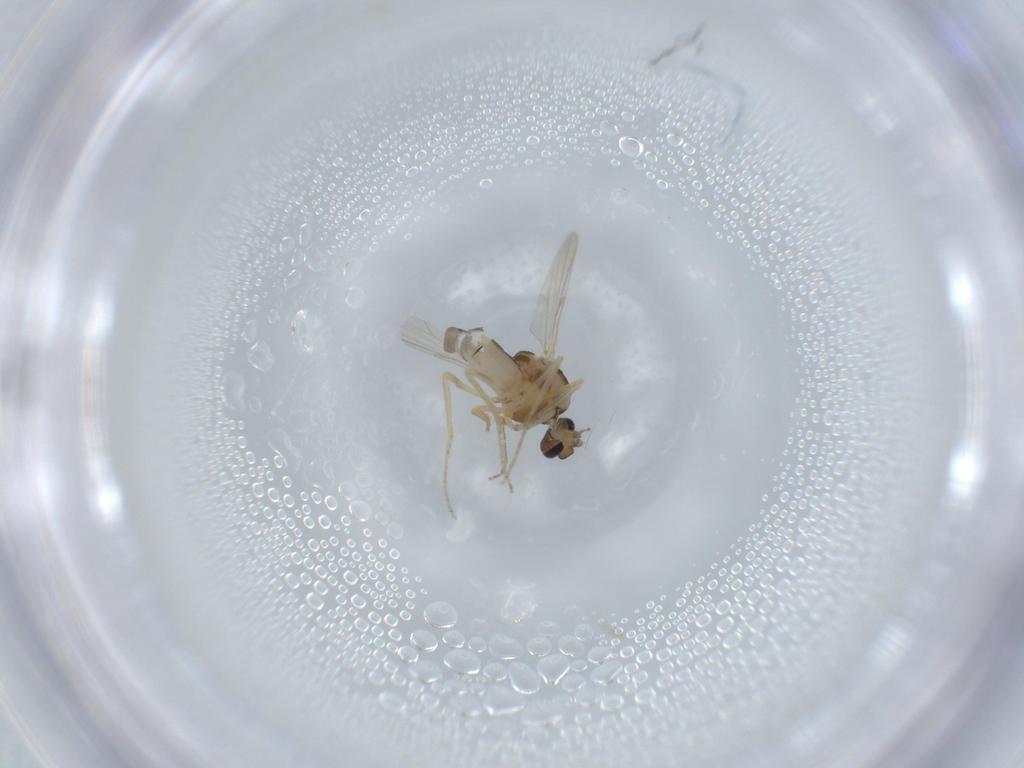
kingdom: Animalia
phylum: Arthropoda
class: Insecta
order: Diptera
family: Ceratopogonidae
